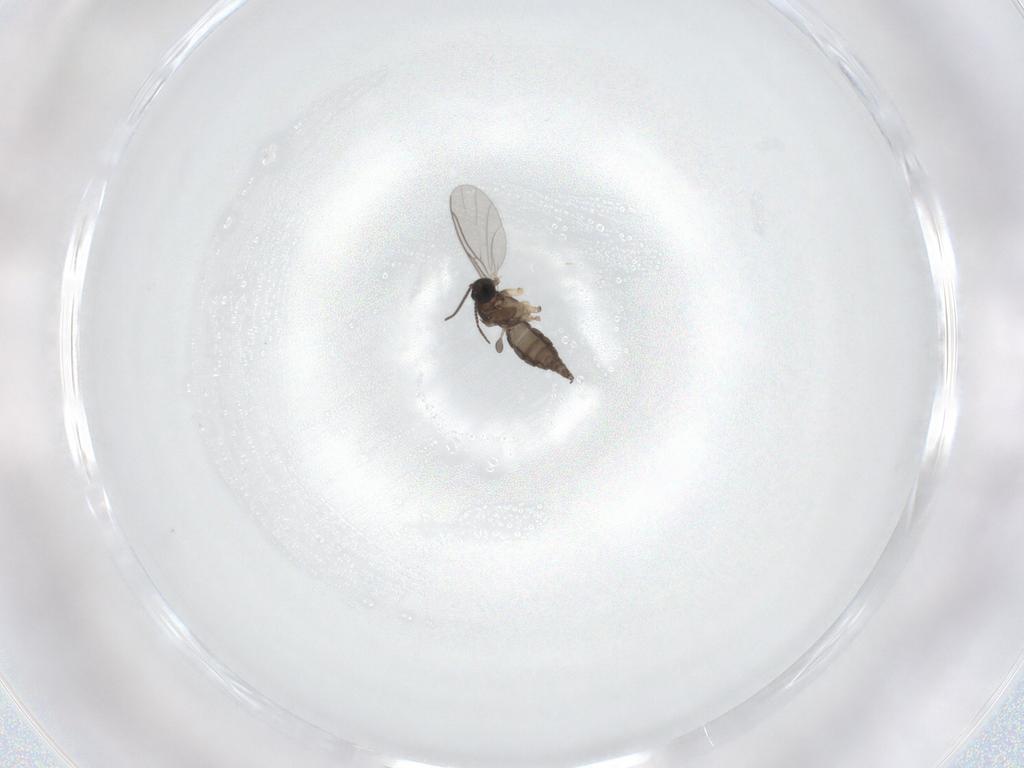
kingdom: Animalia
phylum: Arthropoda
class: Insecta
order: Diptera
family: Sciaridae
